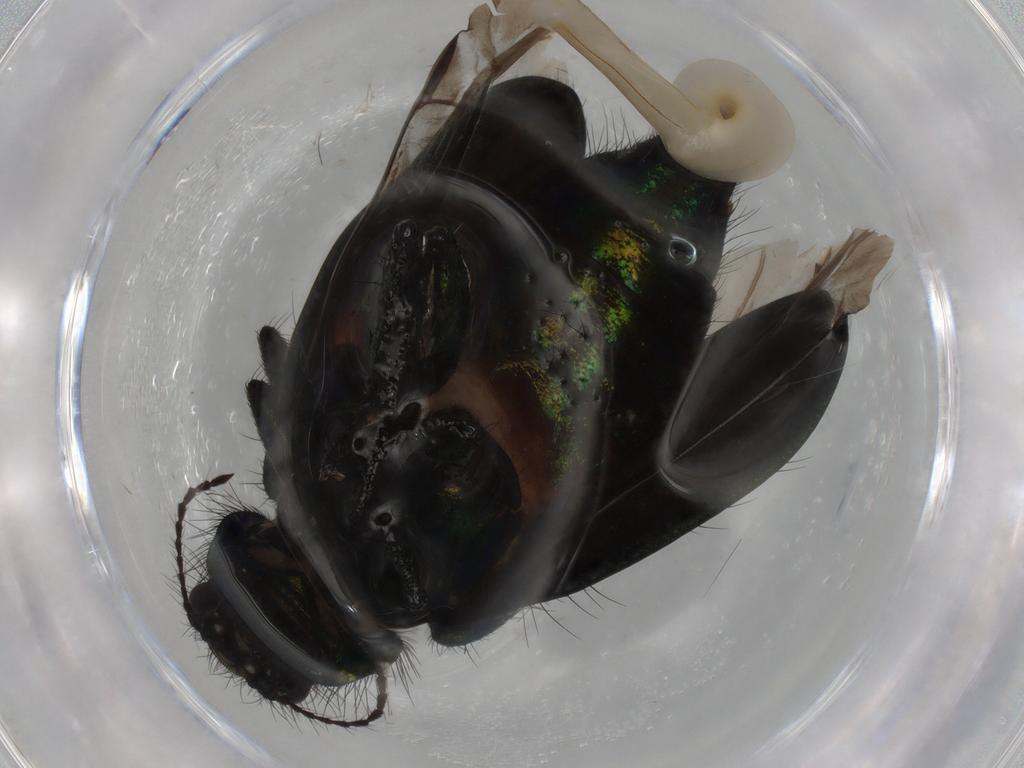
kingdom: Animalia
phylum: Arthropoda
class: Insecta
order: Coleoptera
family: Melyridae
